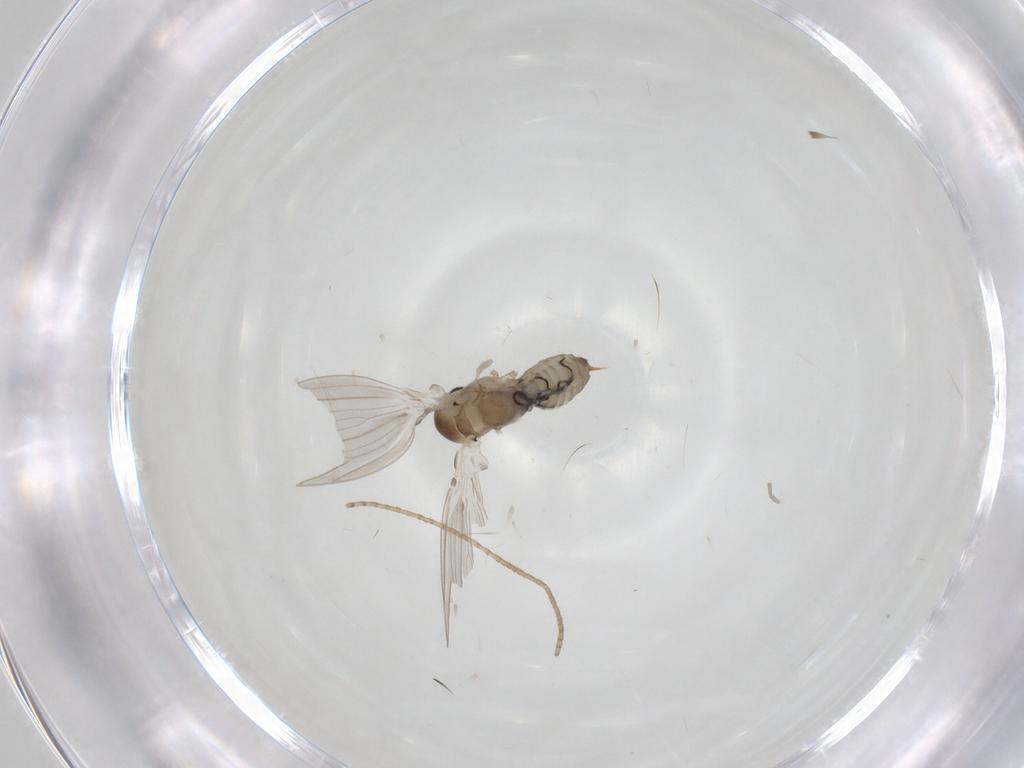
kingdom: Animalia
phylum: Arthropoda
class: Insecta
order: Diptera
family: Psychodidae
